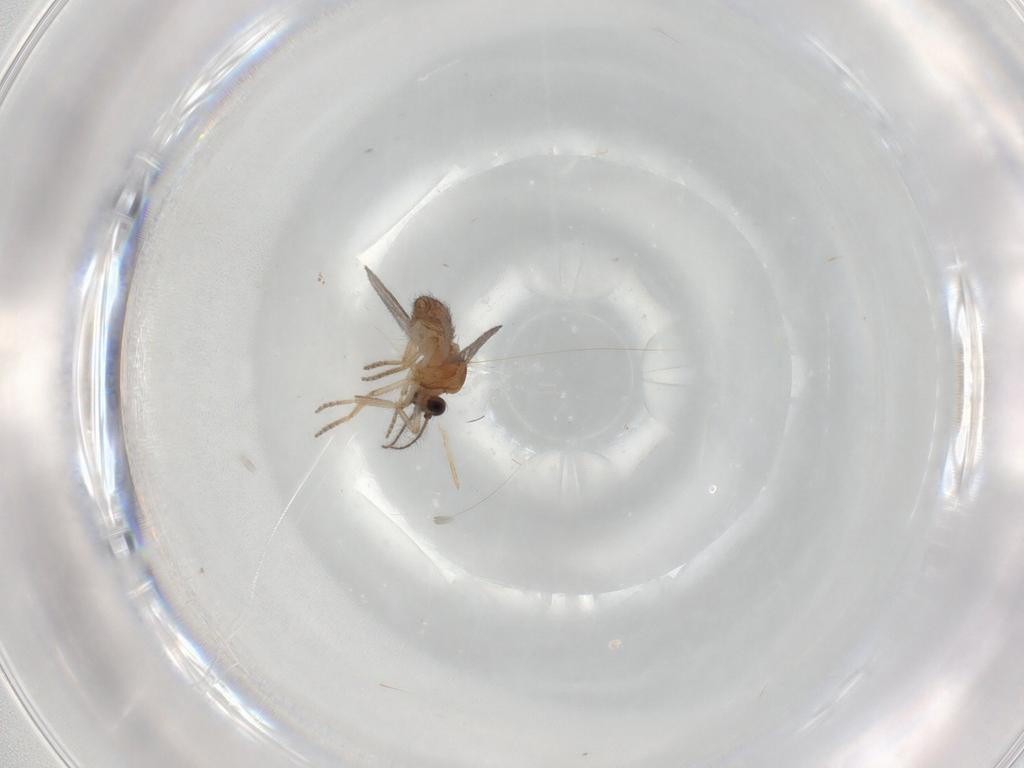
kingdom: Animalia
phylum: Arthropoda
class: Insecta
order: Diptera
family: Ceratopogonidae
